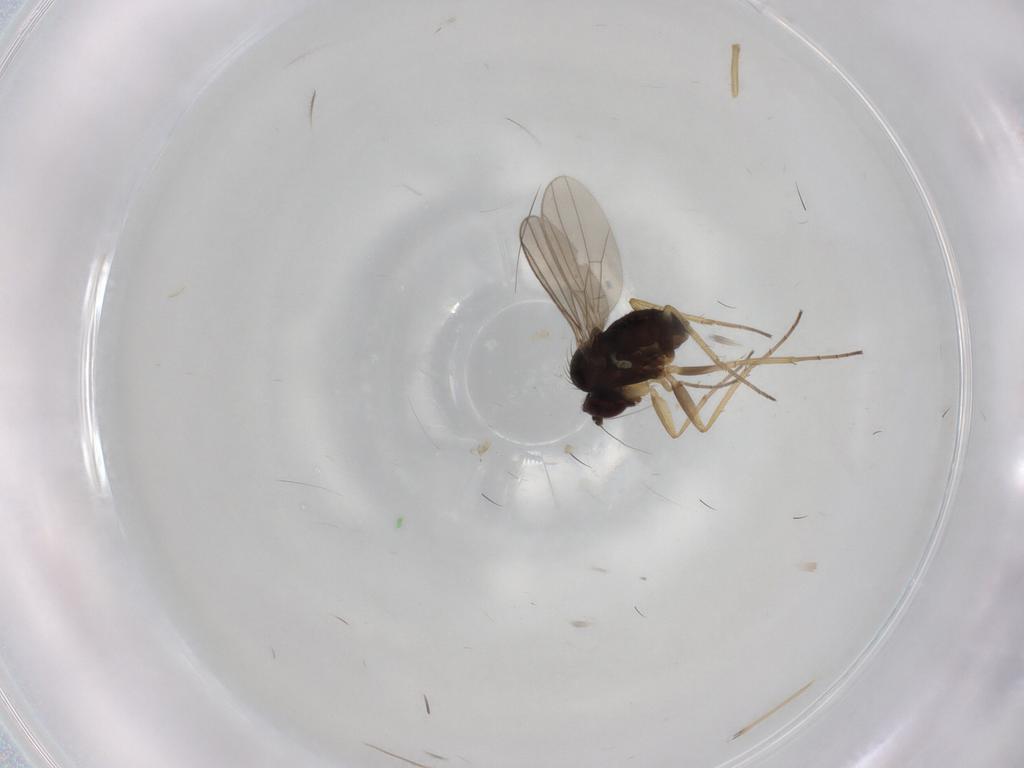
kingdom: Animalia
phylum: Arthropoda
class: Insecta
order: Diptera
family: Dolichopodidae
